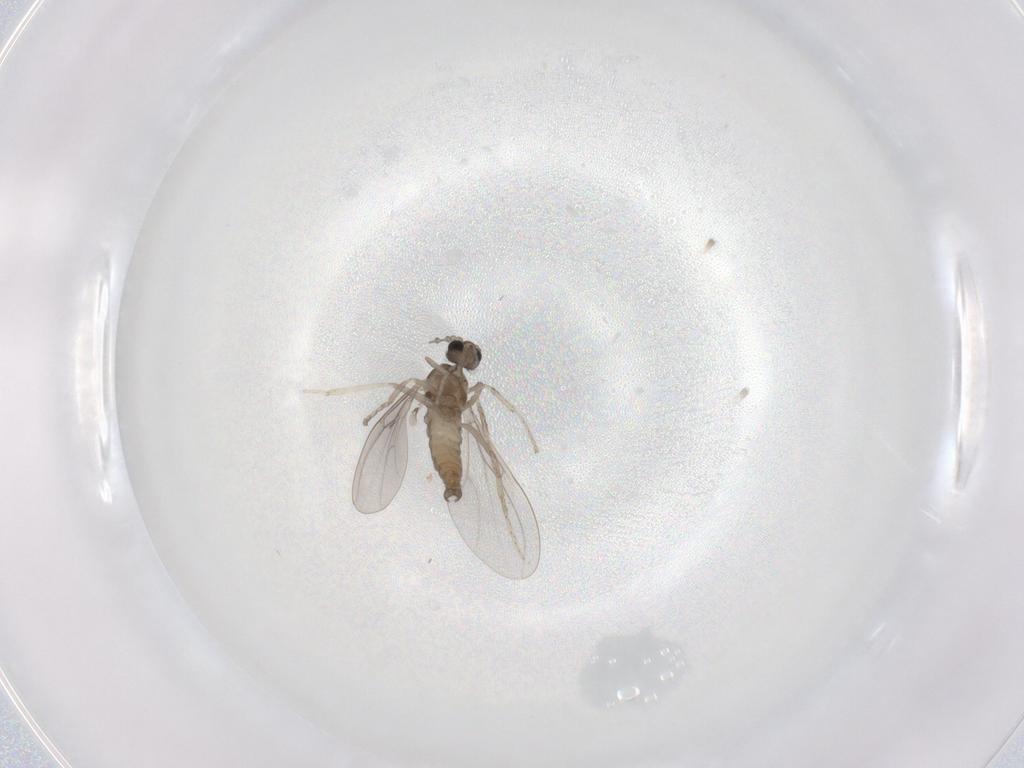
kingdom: Animalia
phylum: Arthropoda
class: Insecta
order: Diptera
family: Cecidomyiidae
